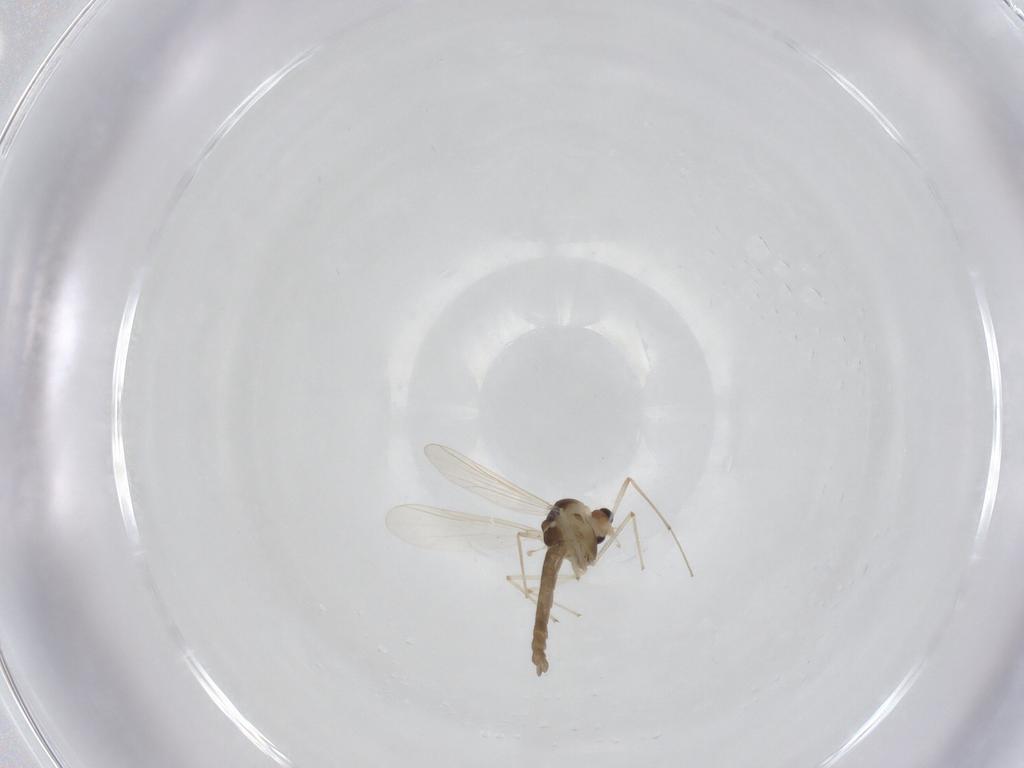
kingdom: Animalia
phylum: Arthropoda
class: Insecta
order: Diptera
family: Chironomidae
